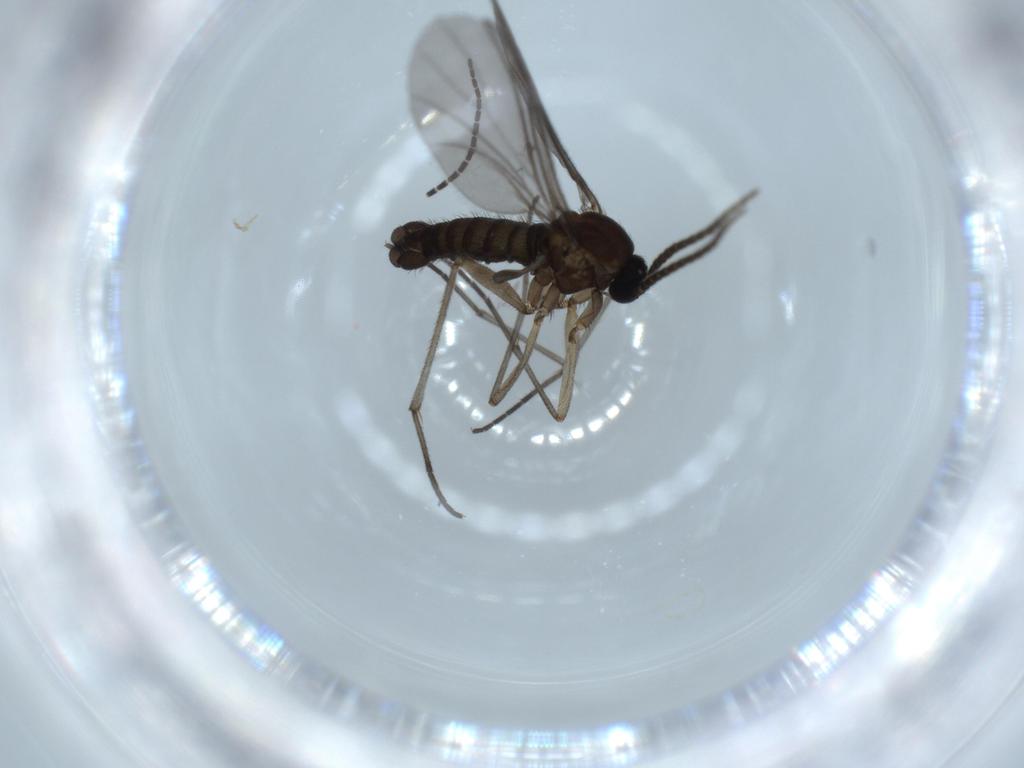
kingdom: Animalia
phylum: Arthropoda
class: Insecta
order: Diptera
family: Sciaridae
